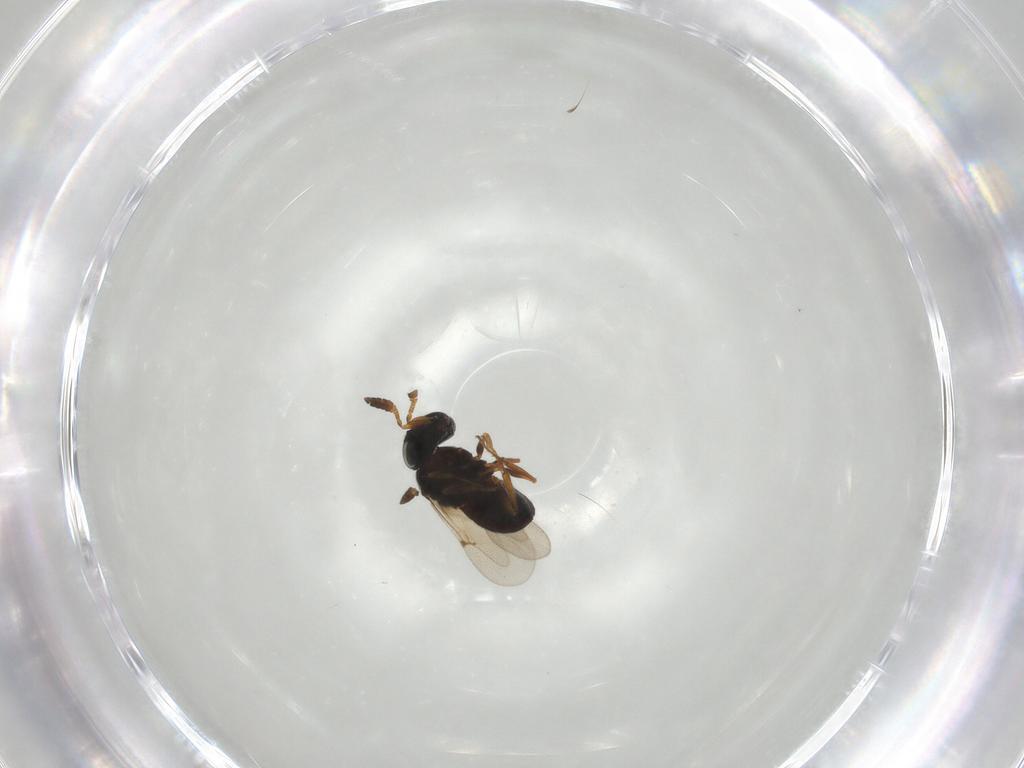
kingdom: Animalia
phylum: Arthropoda
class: Insecta
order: Hymenoptera
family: Scelionidae
